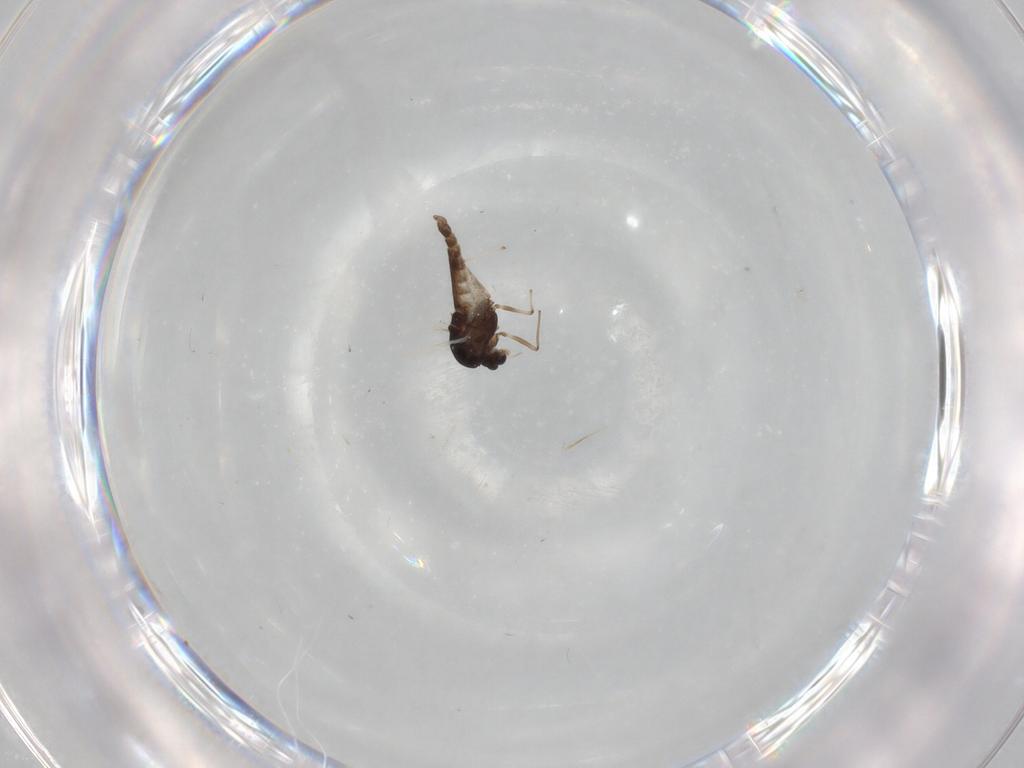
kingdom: Animalia
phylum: Arthropoda
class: Insecta
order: Diptera
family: Chironomidae
